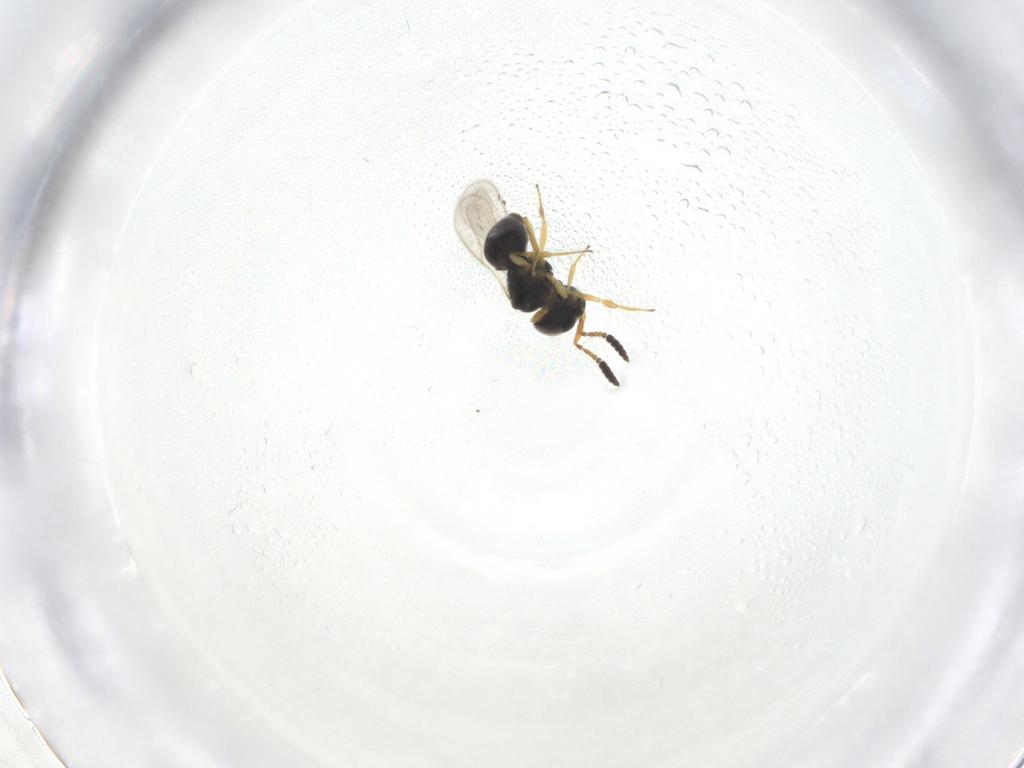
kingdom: Animalia
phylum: Arthropoda
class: Insecta
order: Hymenoptera
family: Scelionidae
